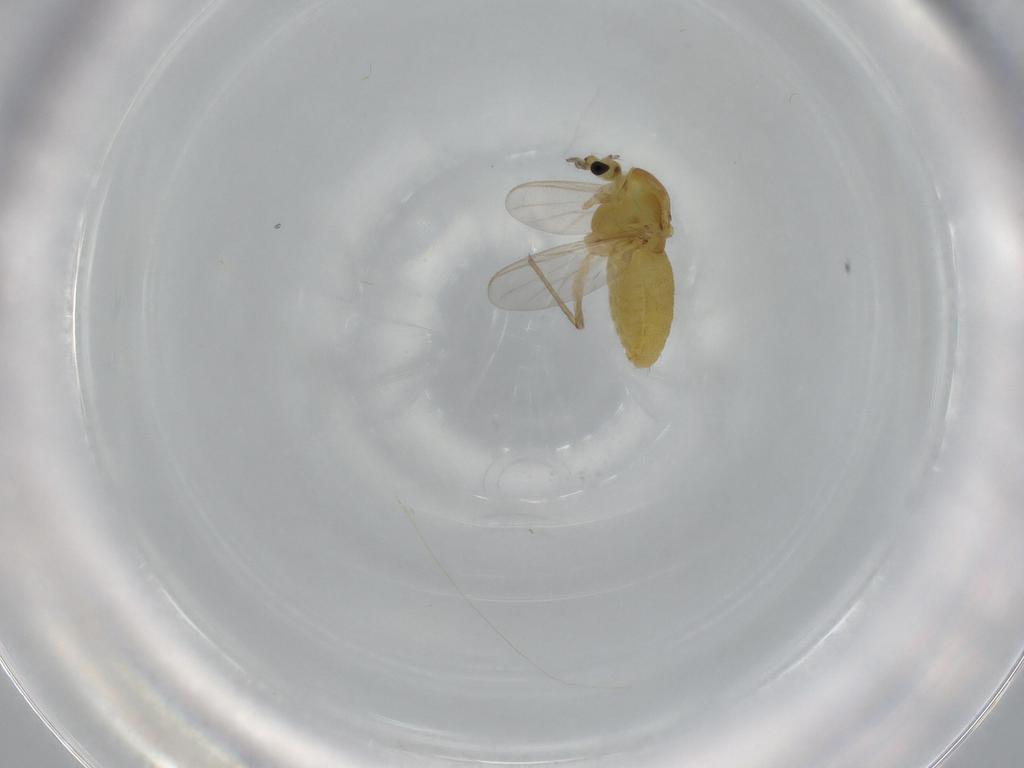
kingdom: Animalia
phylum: Arthropoda
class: Insecta
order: Diptera
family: Chironomidae
